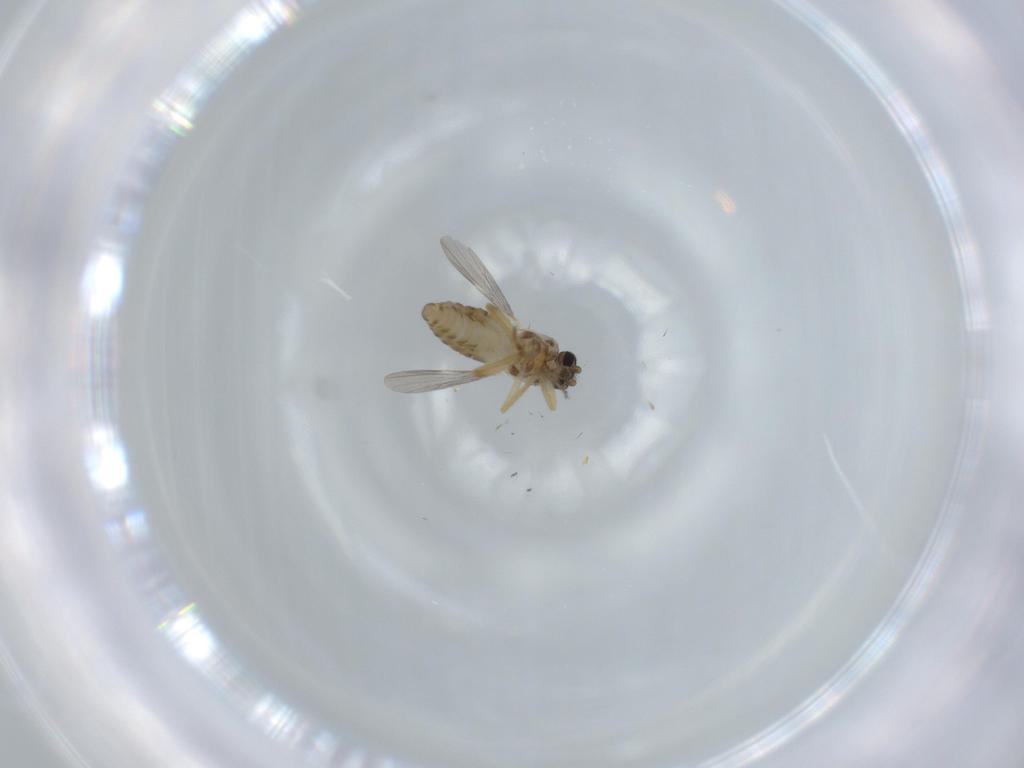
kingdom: Animalia
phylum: Arthropoda
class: Insecta
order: Diptera
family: Ceratopogonidae
